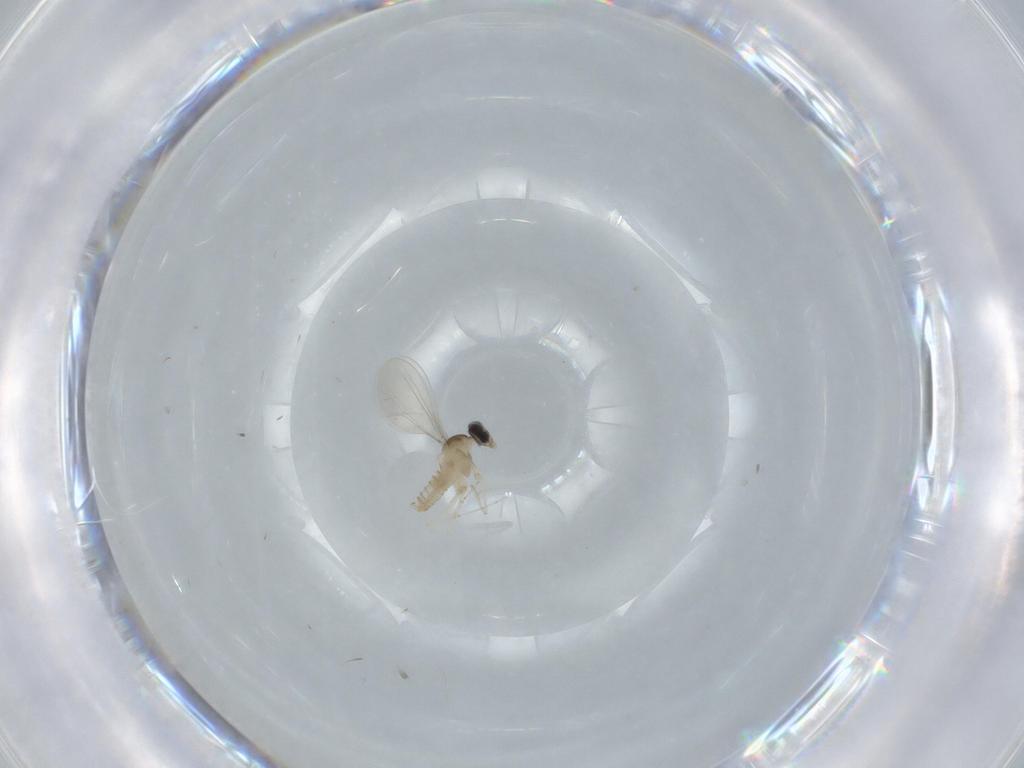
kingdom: Animalia
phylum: Arthropoda
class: Insecta
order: Diptera
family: Cecidomyiidae
